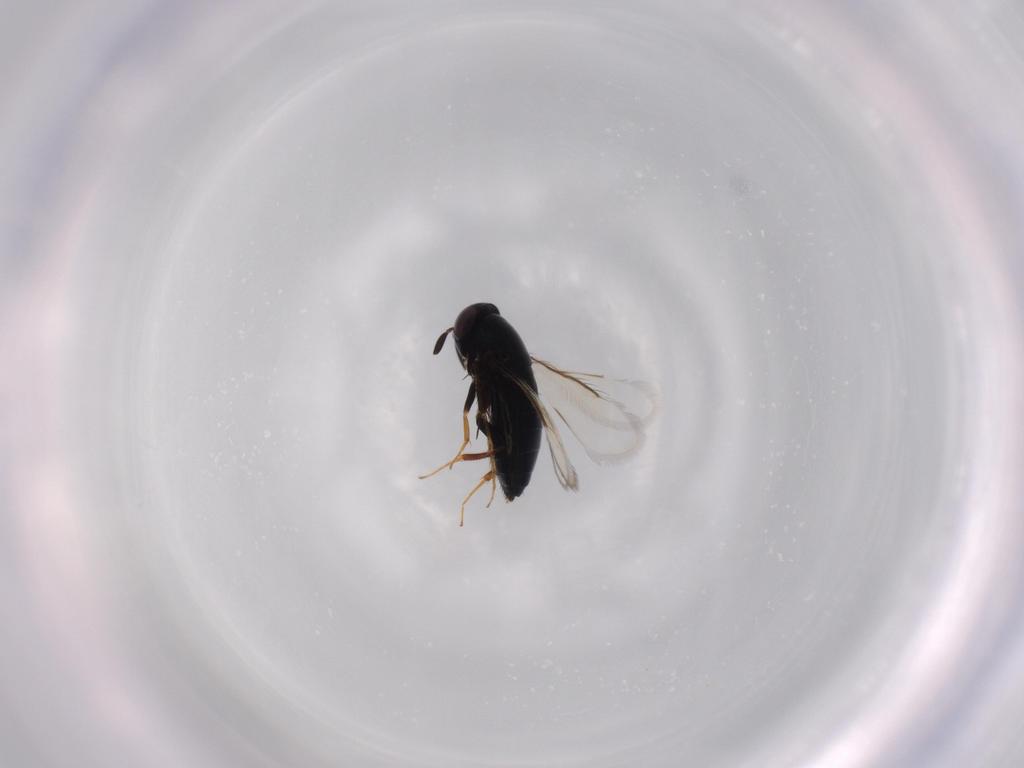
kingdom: Animalia
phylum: Arthropoda
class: Insecta
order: Hymenoptera
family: Signiphoridae
